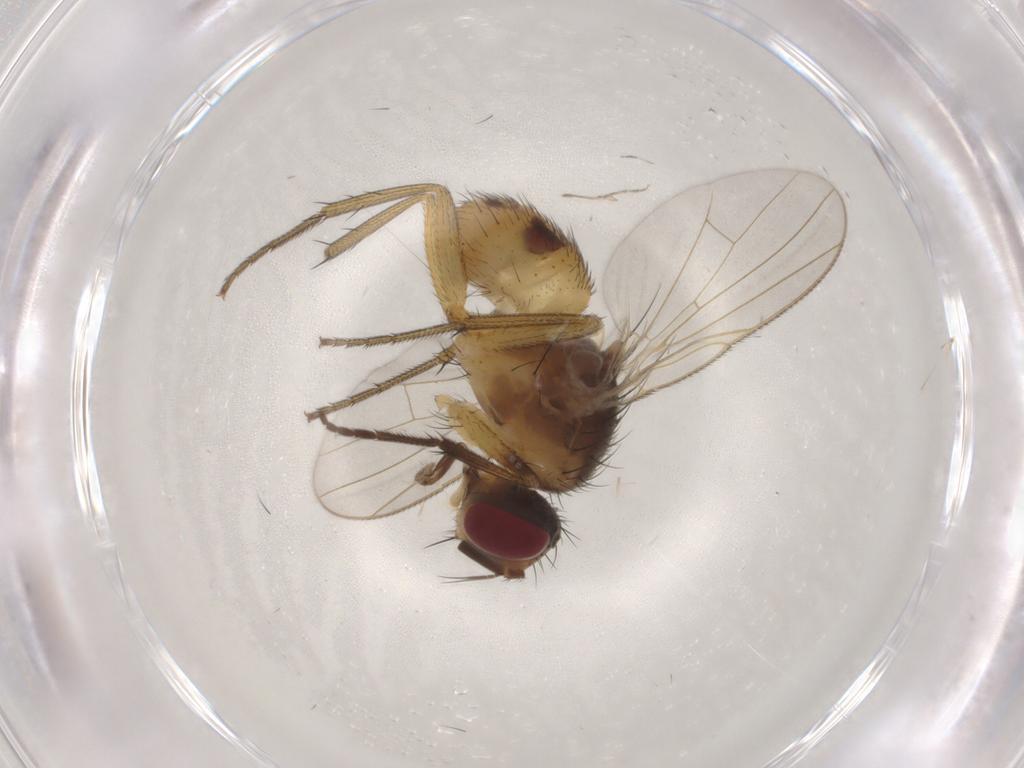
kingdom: Animalia
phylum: Arthropoda
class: Insecta
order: Diptera
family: Muscidae
